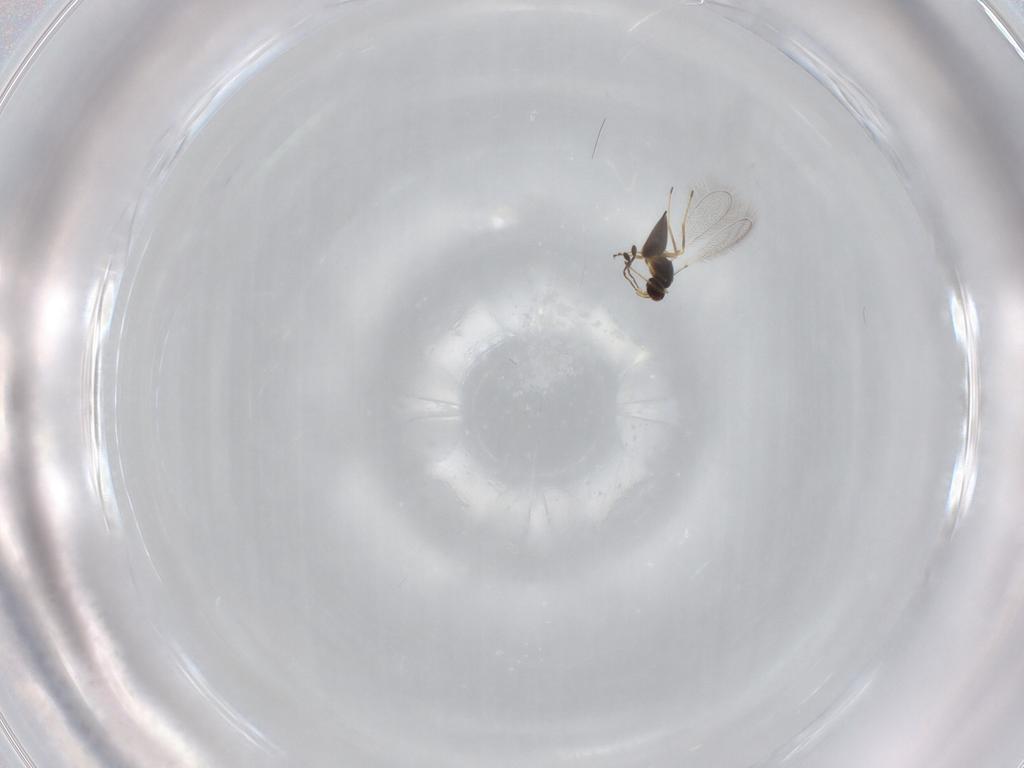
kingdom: Animalia
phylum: Arthropoda
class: Insecta
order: Hymenoptera
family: Mymaridae
